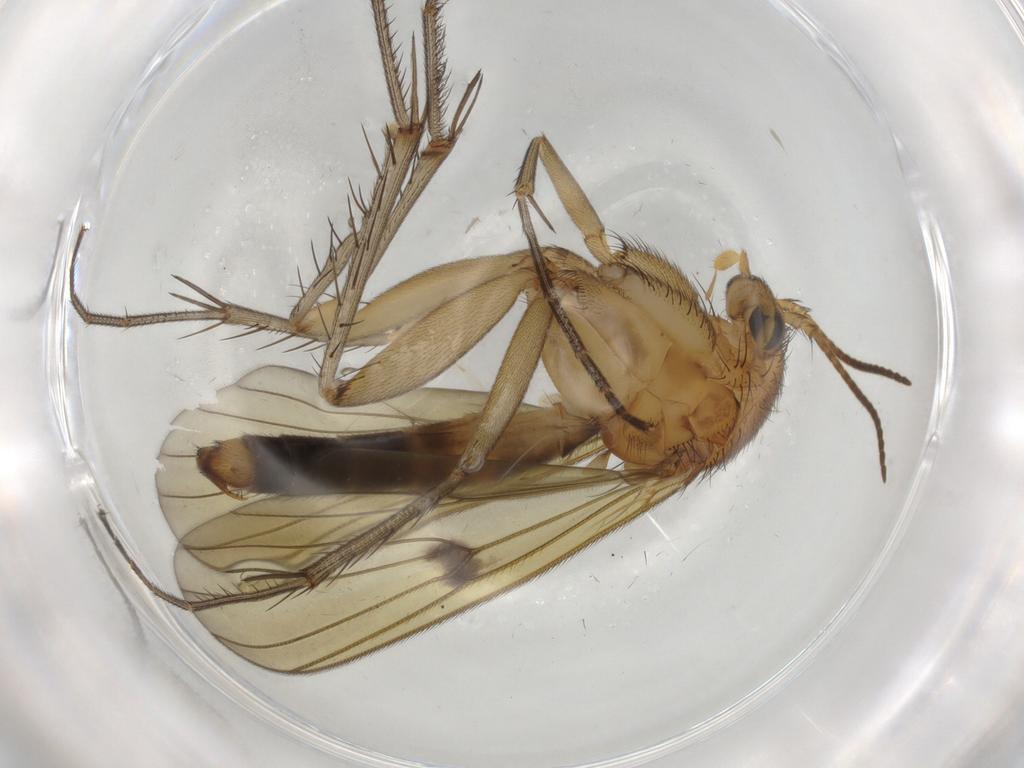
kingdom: Animalia
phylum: Arthropoda
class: Insecta
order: Diptera
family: Mycetophilidae
